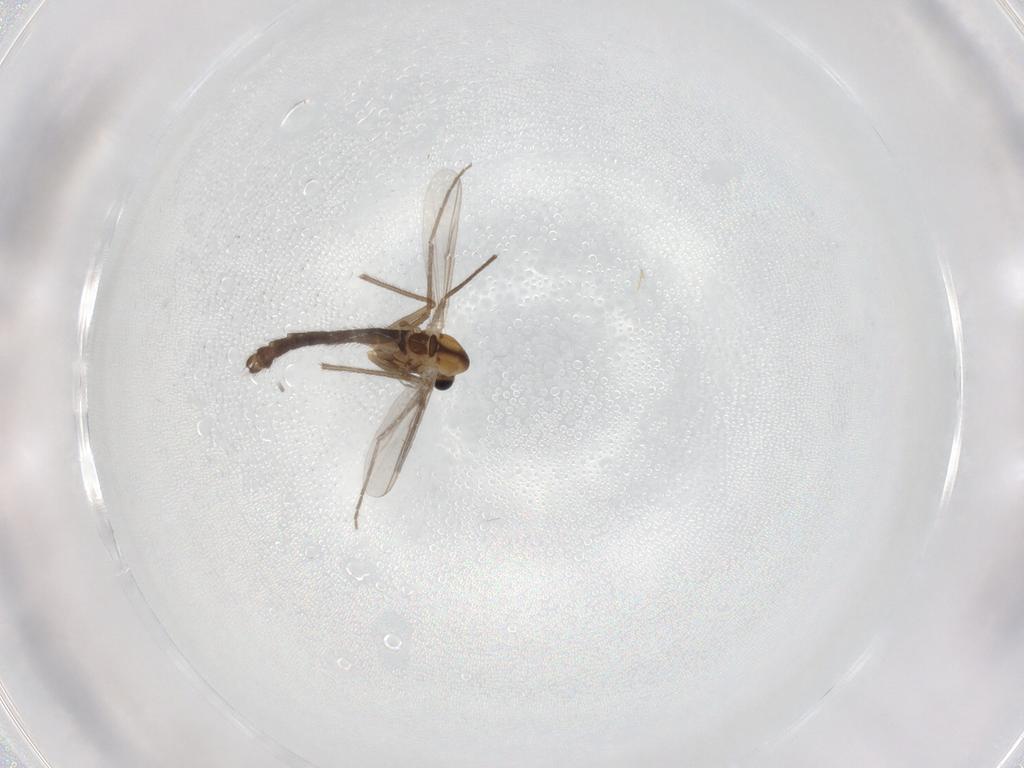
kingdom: Animalia
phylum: Arthropoda
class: Insecta
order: Diptera
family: Chironomidae
